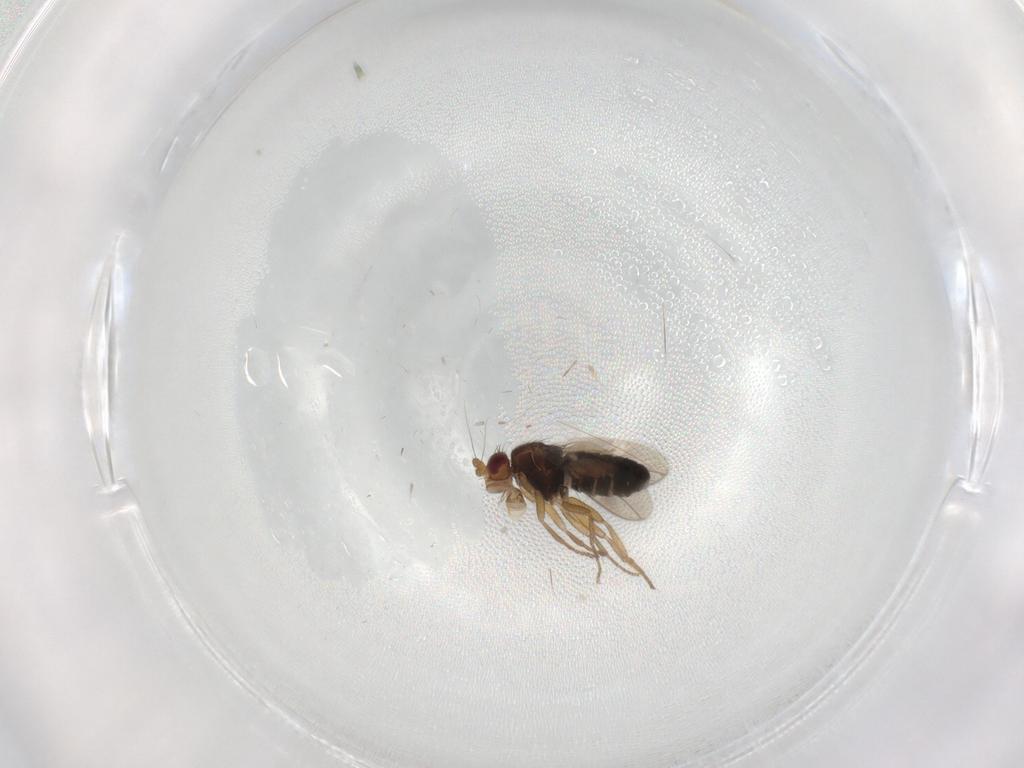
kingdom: Animalia
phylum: Arthropoda
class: Insecta
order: Diptera
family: Sphaeroceridae
